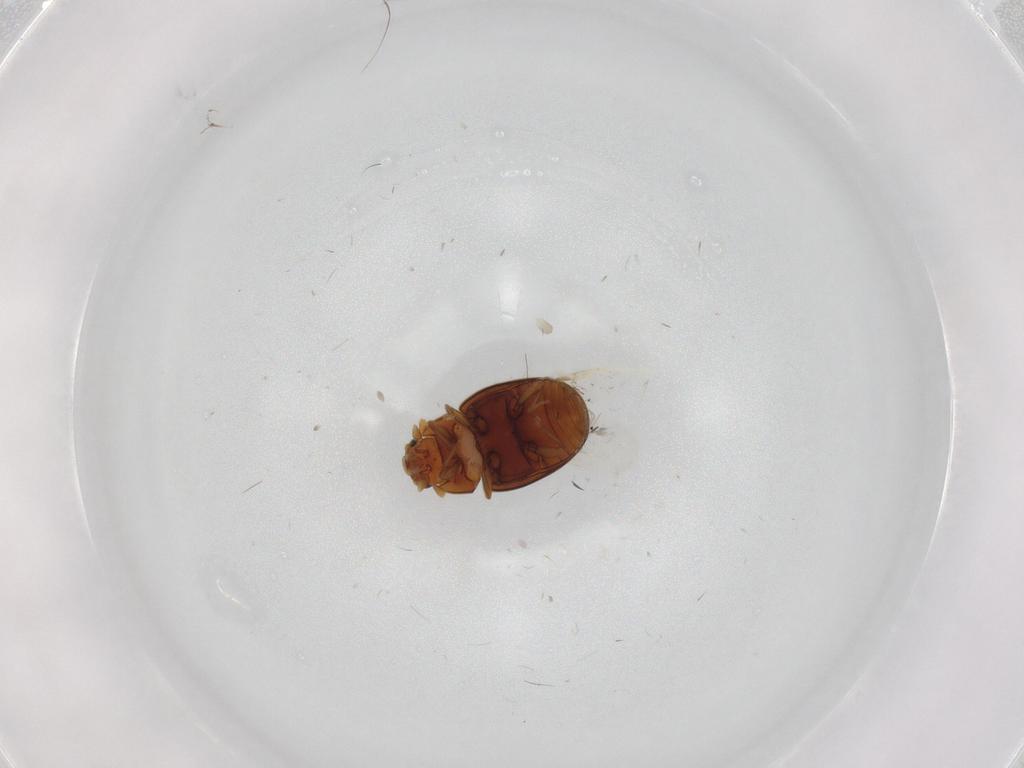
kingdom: Animalia
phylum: Arthropoda
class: Insecta
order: Coleoptera
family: Coccinellidae
